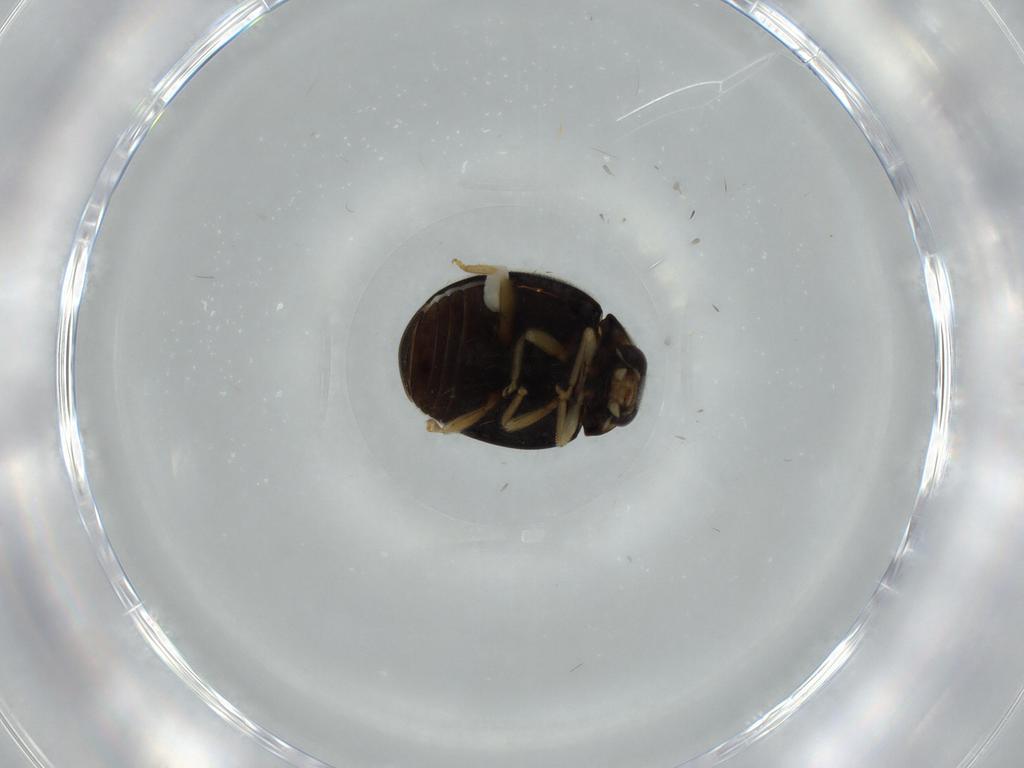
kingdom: Animalia
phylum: Arthropoda
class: Insecta
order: Coleoptera
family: Coccinellidae
